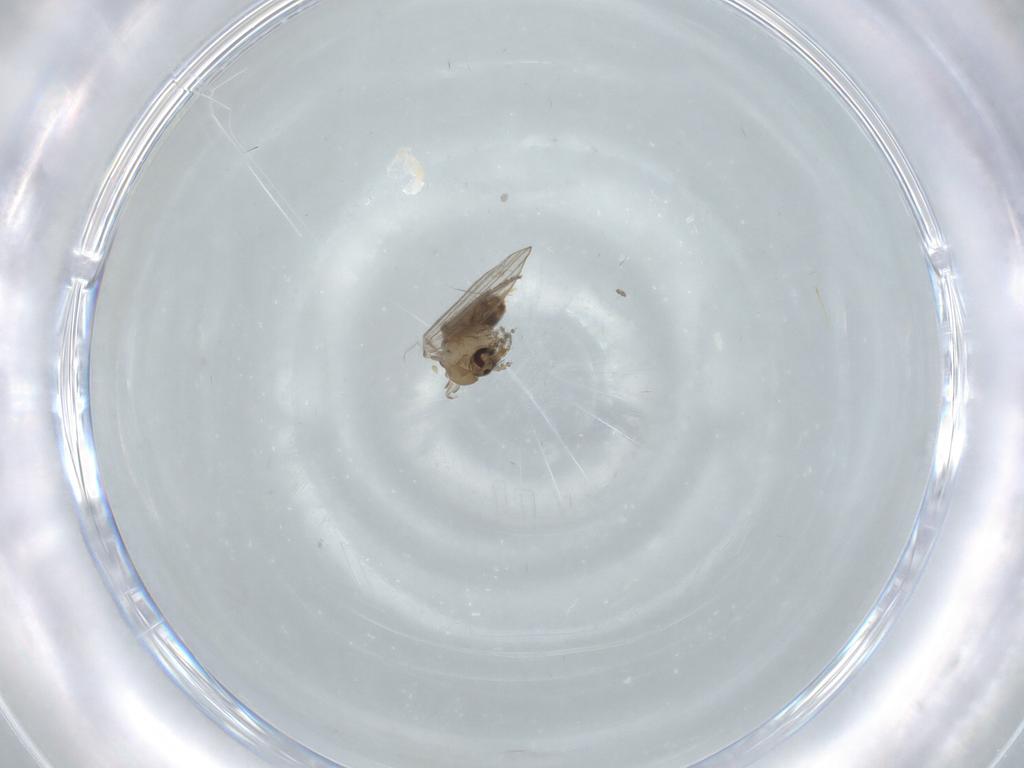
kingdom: Animalia
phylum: Arthropoda
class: Insecta
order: Diptera
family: Psychodidae
